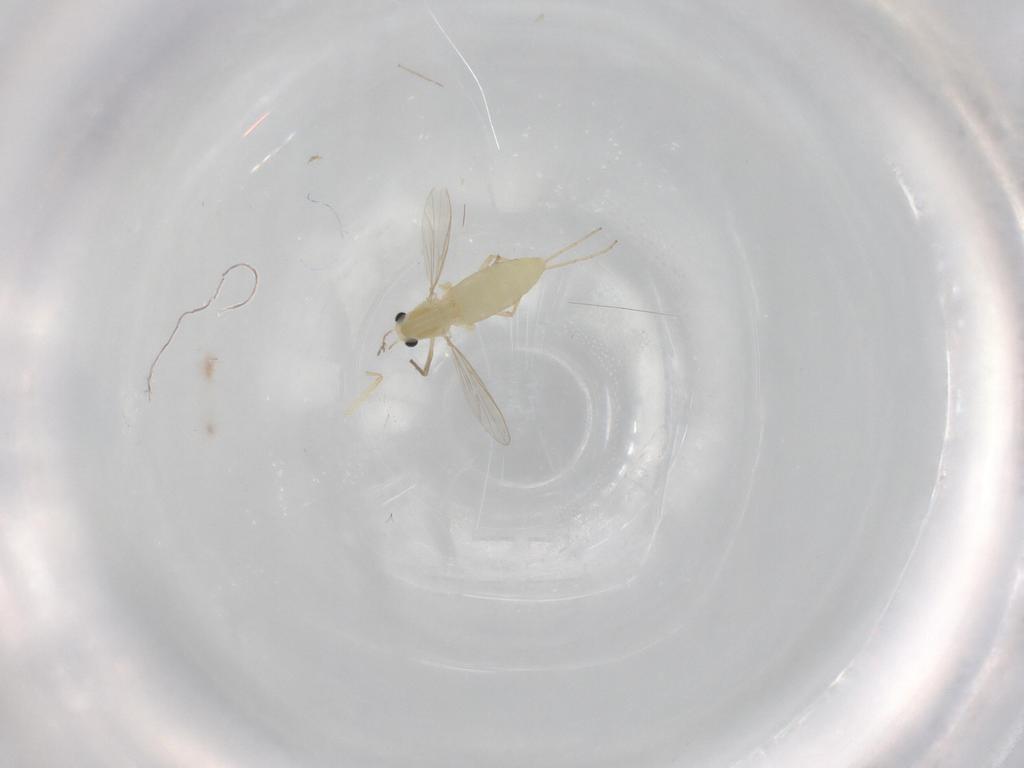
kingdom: Animalia
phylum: Arthropoda
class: Insecta
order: Diptera
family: Chironomidae
